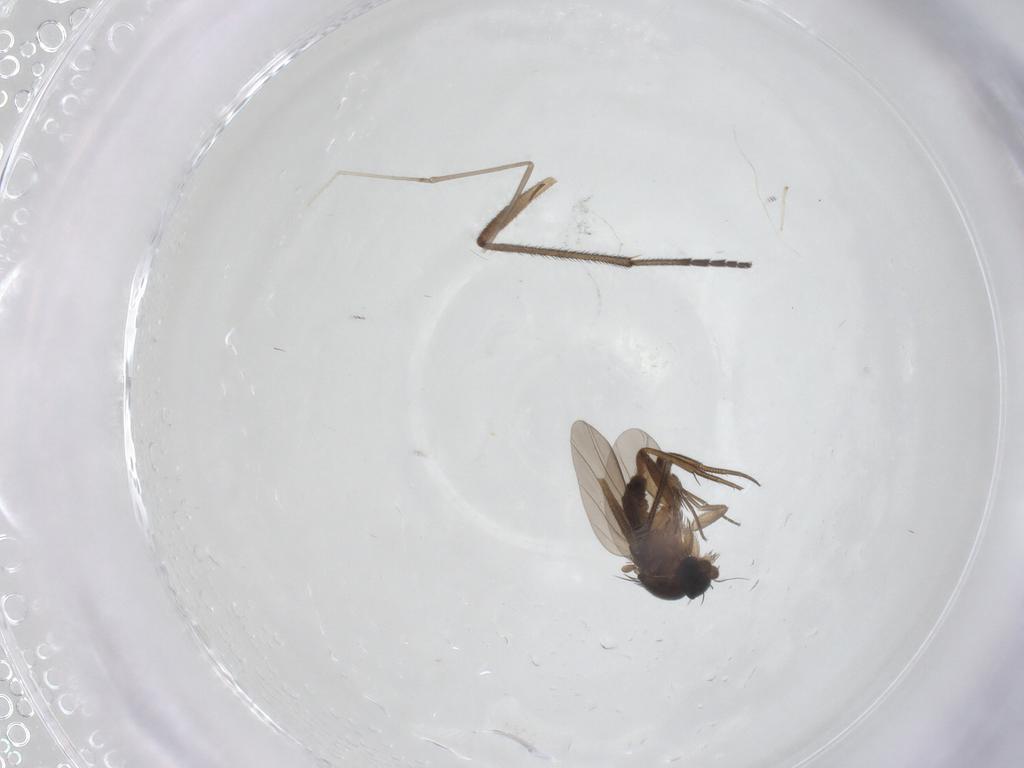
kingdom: Animalia
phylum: Arthropoda
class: Insecta
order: Diptera
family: Cecidomyiidae
